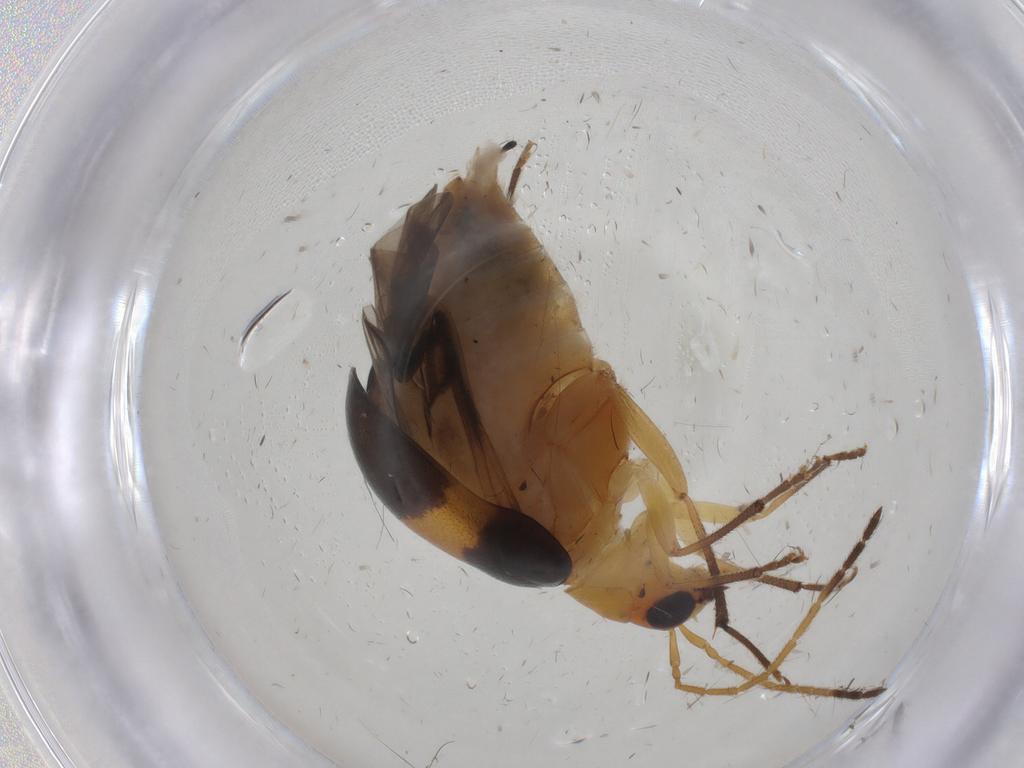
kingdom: Animalia
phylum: Arthropoda
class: Insecta
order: Coleoptera
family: Chrysomelidae
